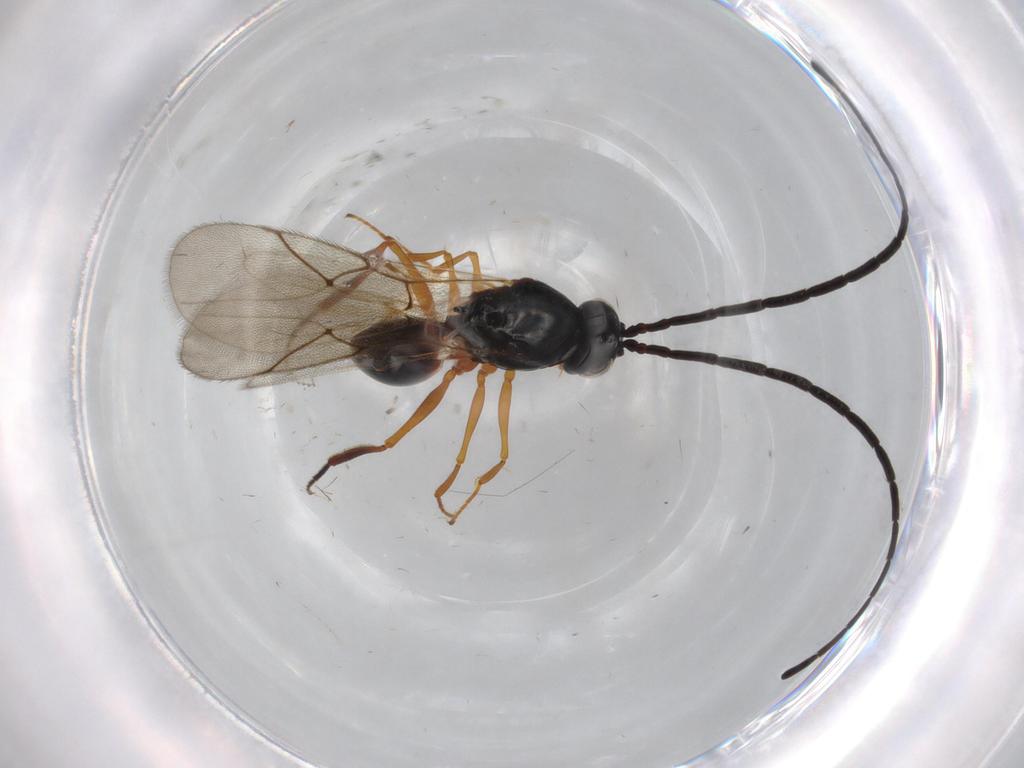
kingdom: Animalia
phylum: Arthropoda
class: Insecta
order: Hymenoptera
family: Figitidae
